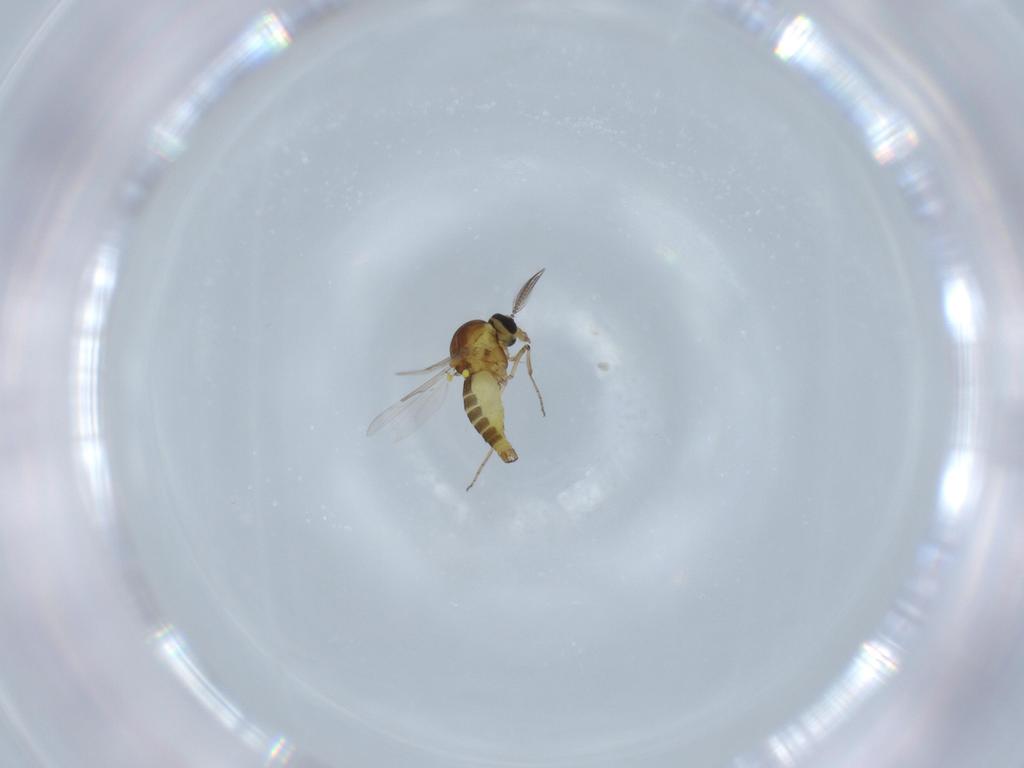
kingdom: Animalia
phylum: Arthropoda
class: Insecta
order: Diptera
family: Ceratopogonidae
